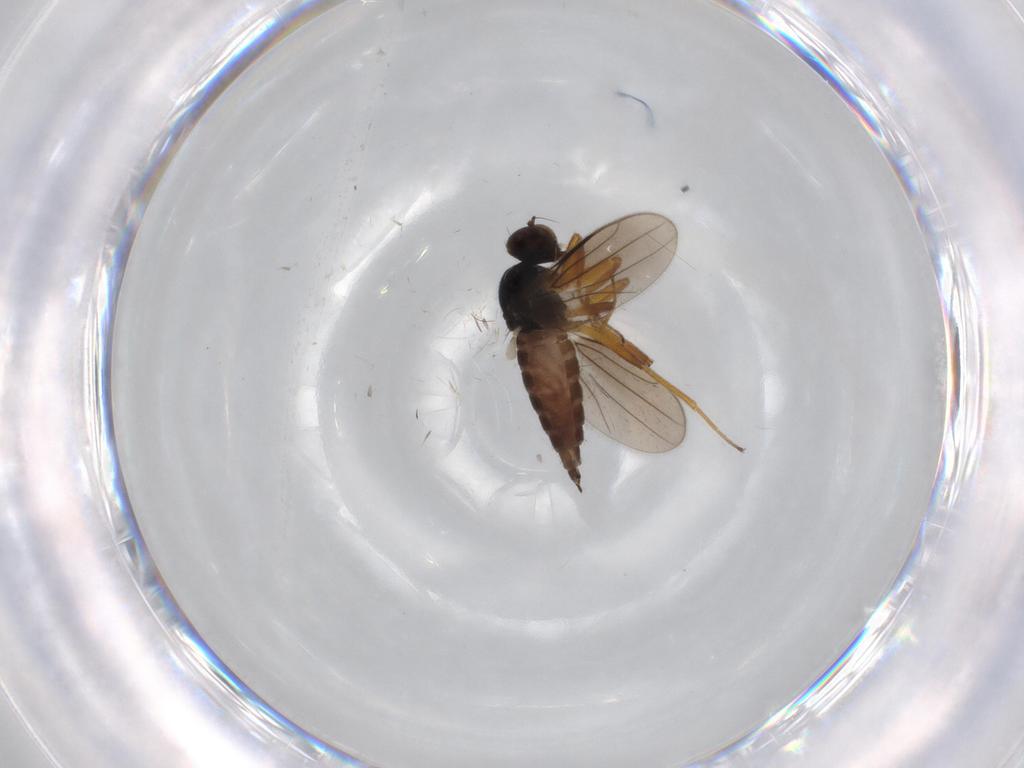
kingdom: Animalia
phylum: Arthropoda
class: Insecta
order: Diptera
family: Hybotidae
